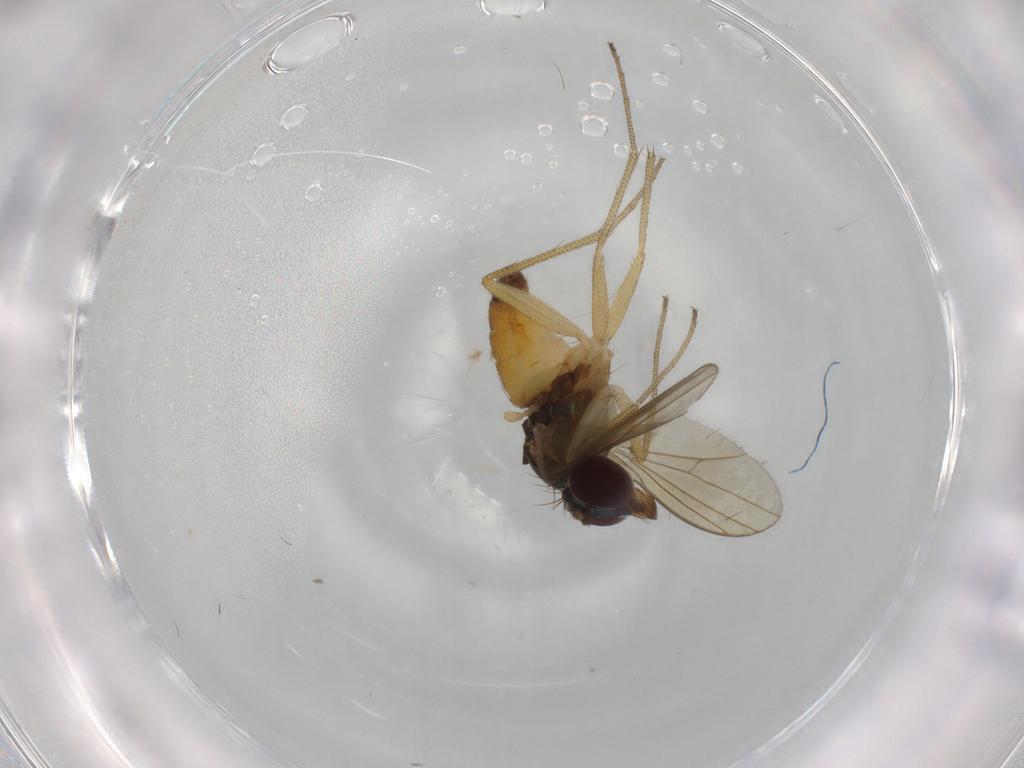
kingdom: Animalia
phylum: Arthropoda
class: Insecta
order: Diptera
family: Dolichopodidae
